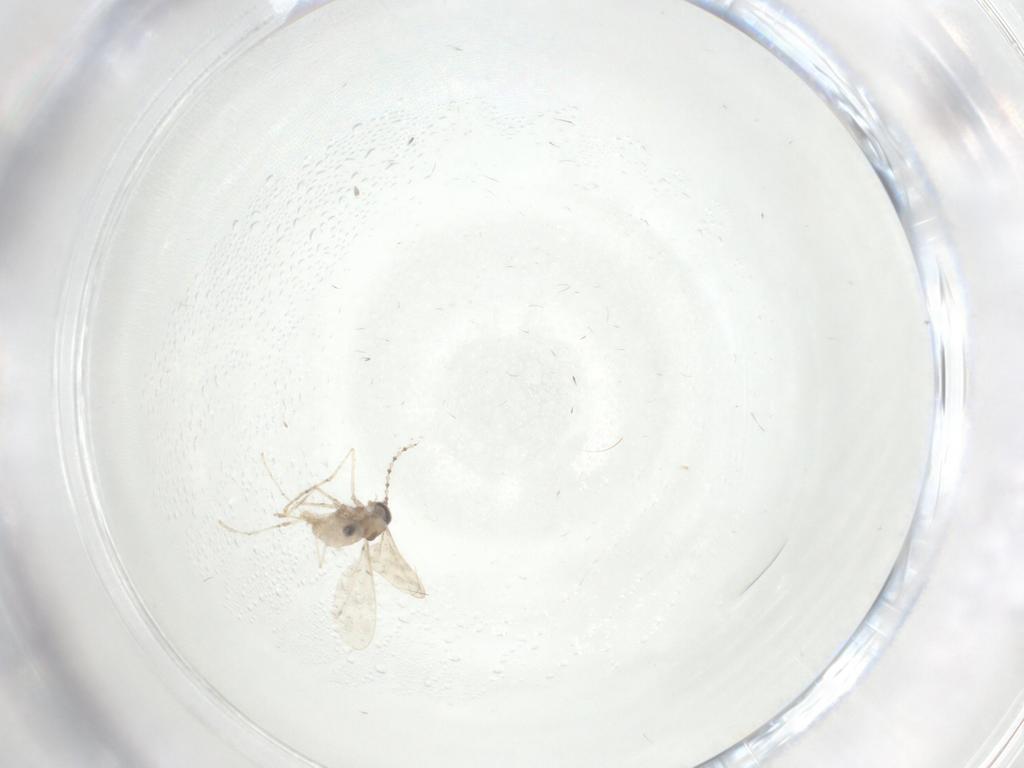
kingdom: Animalia
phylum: Arthropoda
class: Insecta
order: Diptera
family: Cecidomyiidae
